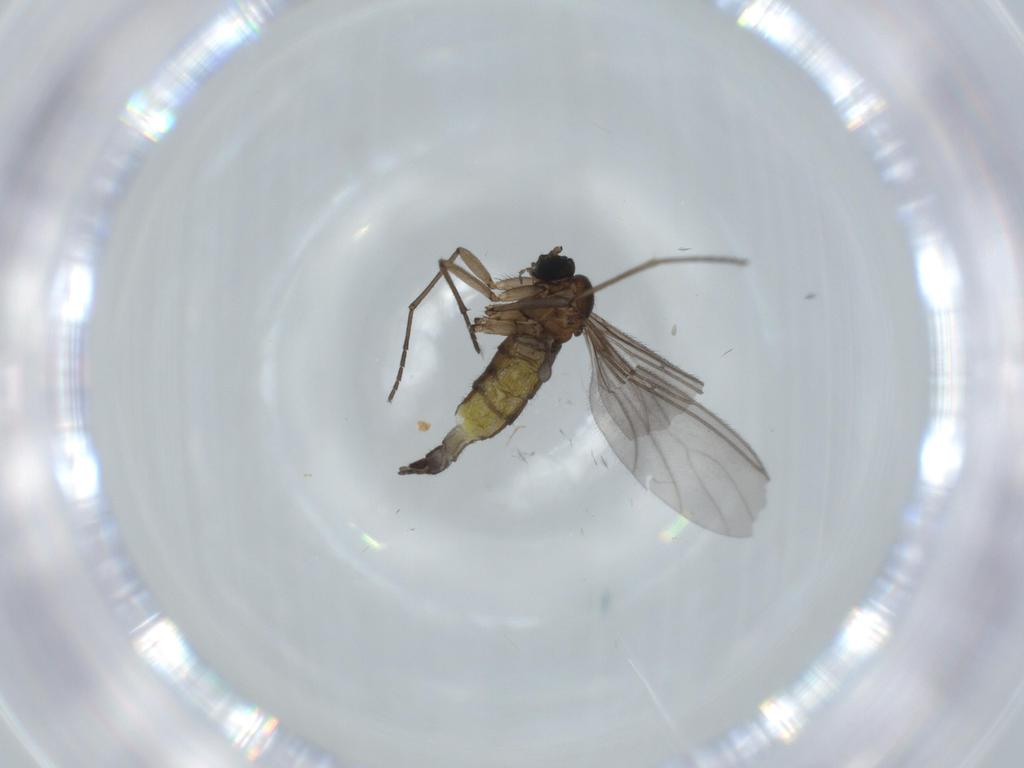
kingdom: Animalia
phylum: Arthropoda
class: Insecta
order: Diptera
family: Sciaridae
